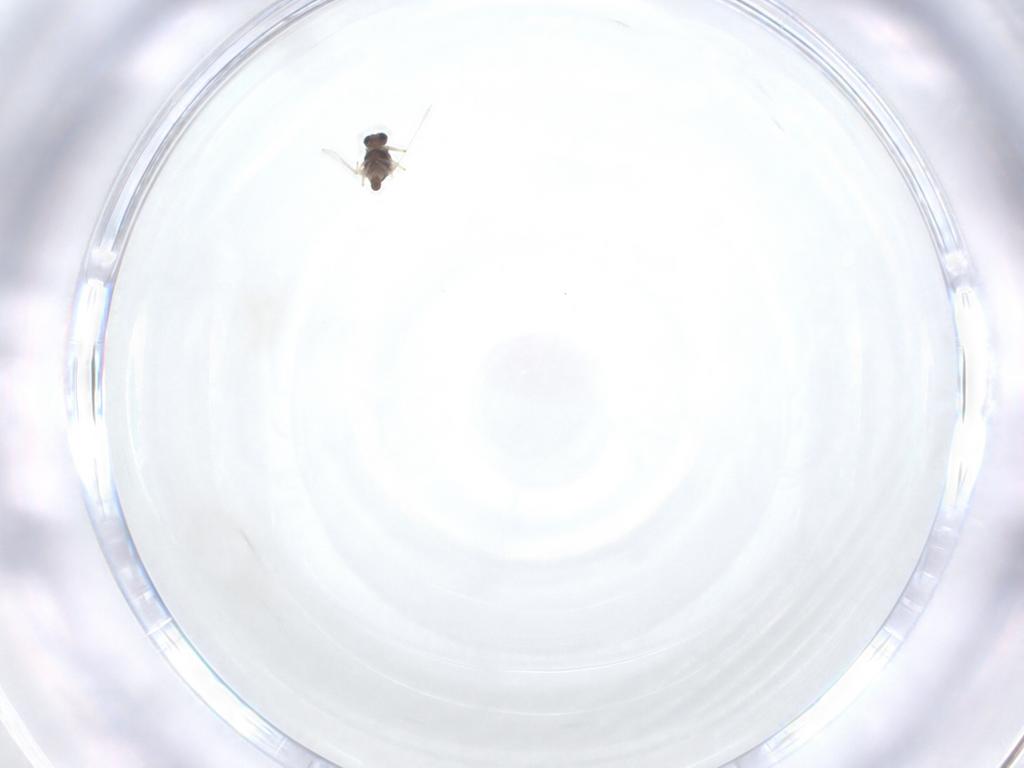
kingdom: Animalia
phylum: Arthropoda
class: Insecta
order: Diptera
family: Chironomidae
